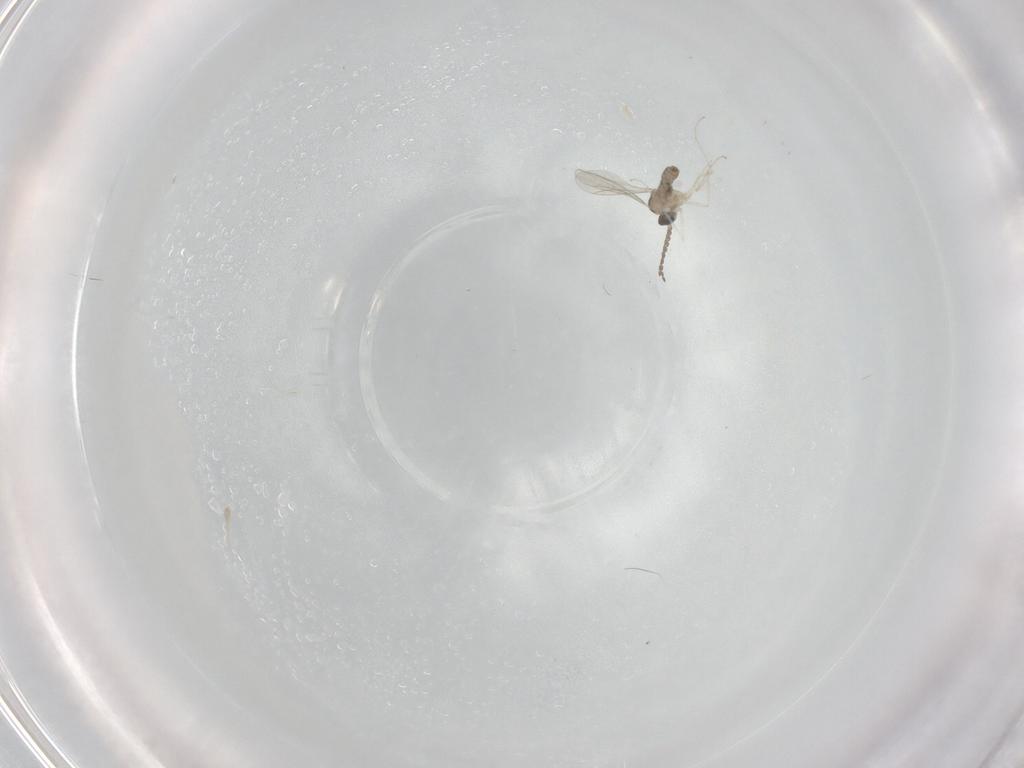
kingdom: Animalia
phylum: Arthropoda
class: Insecta
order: Diptera
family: Cecidomyiidae
